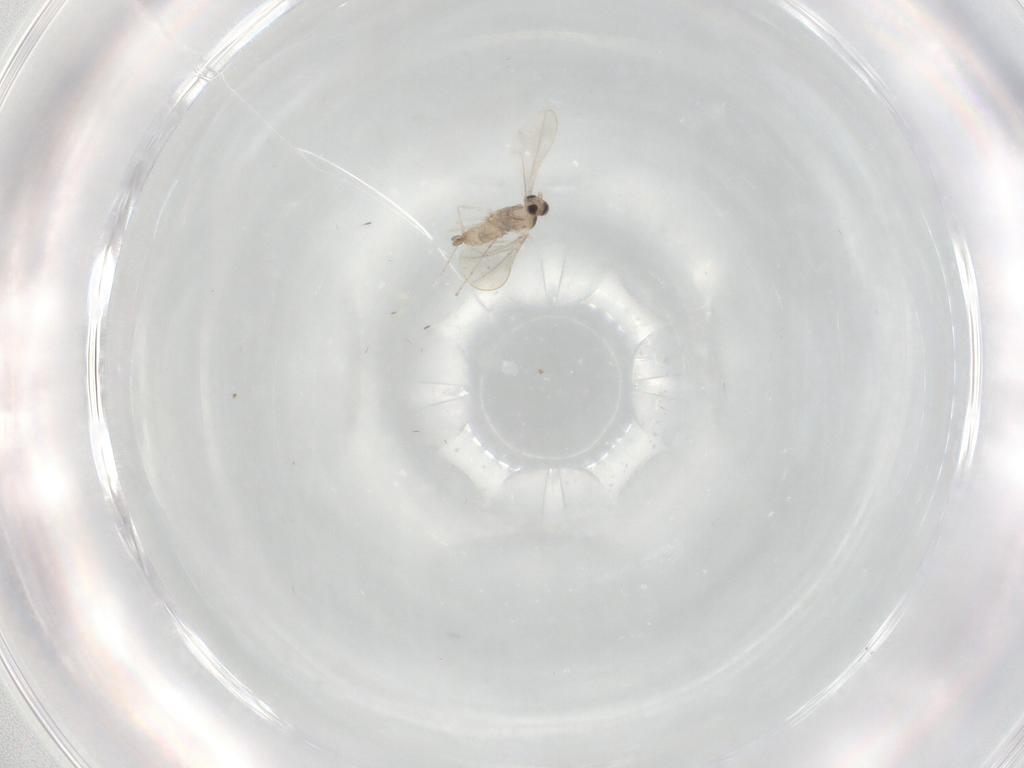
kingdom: Animalia
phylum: Arthropoda
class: Insecta
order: Diptera
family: Cecidomyiidae
